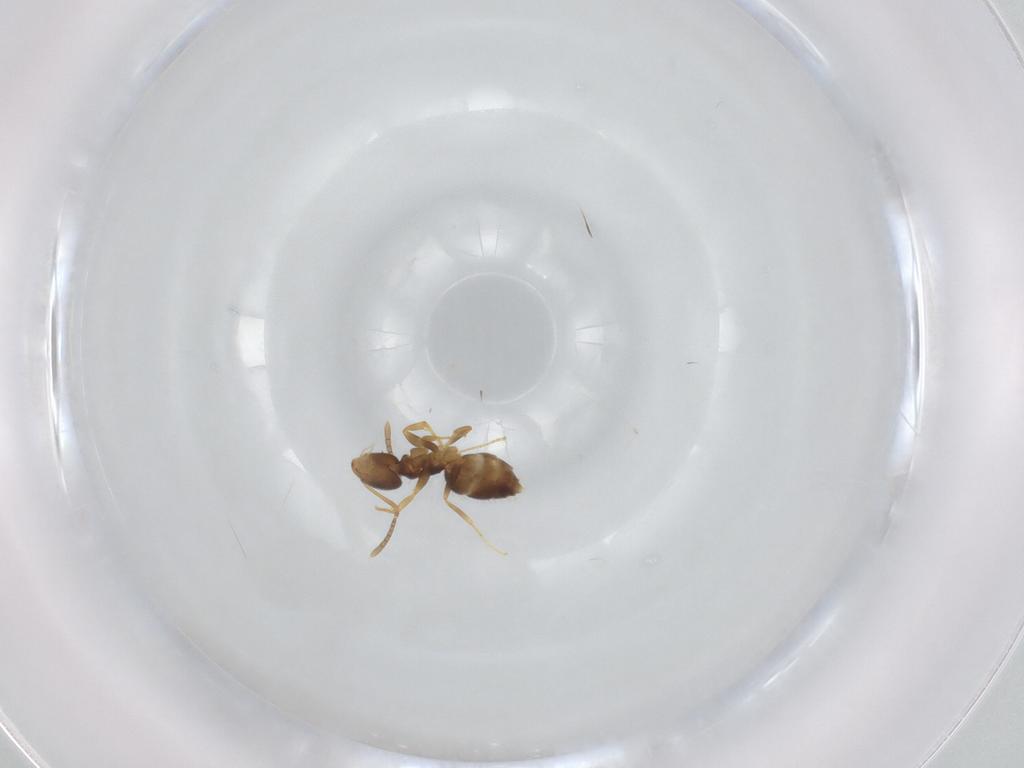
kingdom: Animalia
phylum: Arthropoda
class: Insecta
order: Hymenoptera
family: Formicidae
